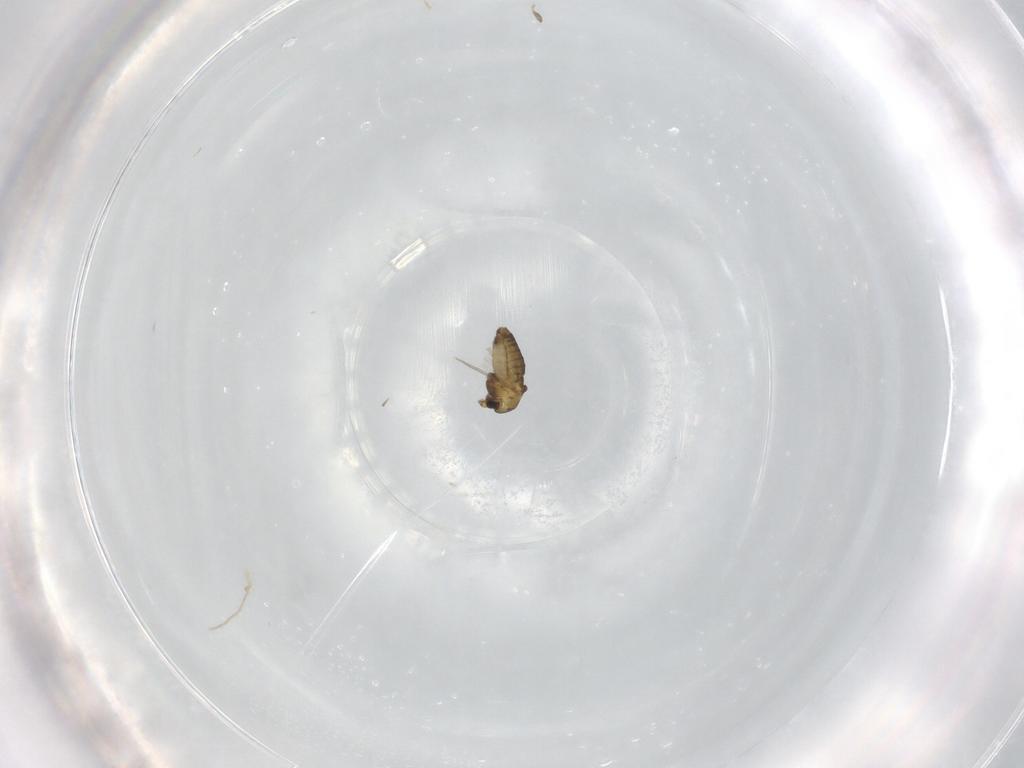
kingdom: Animalia
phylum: Arthropoda
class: Insecta
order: Diptera
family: Chironomidae
